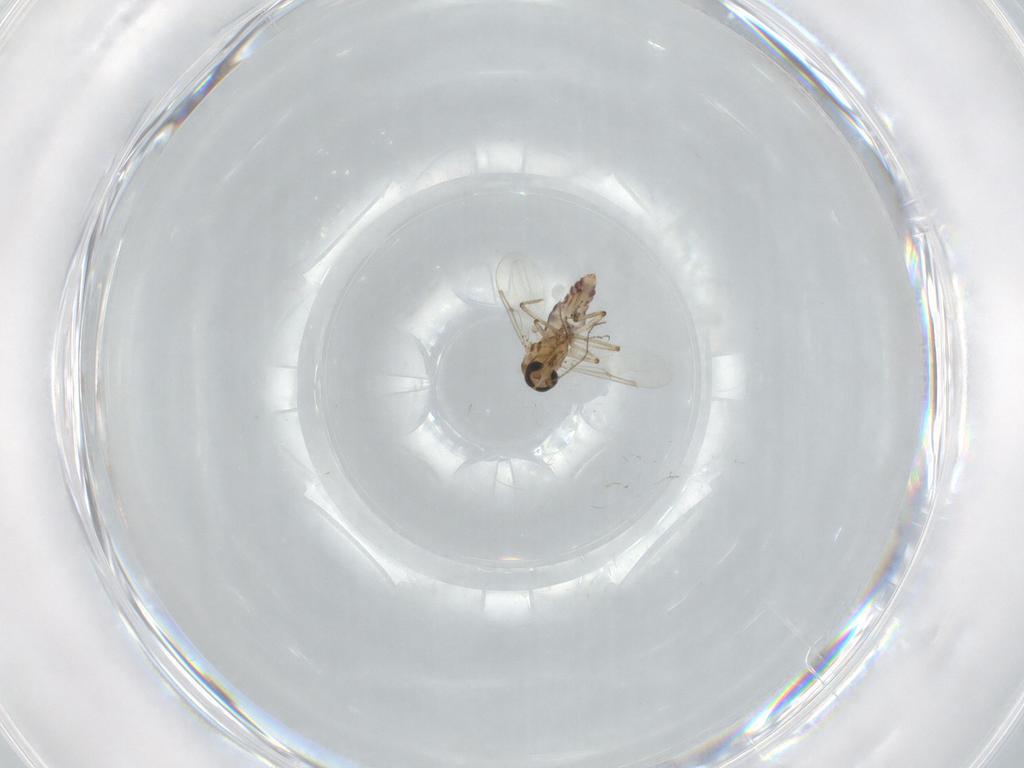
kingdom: Animalia
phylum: Arthropoda
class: Insecta
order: Diptera
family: Ceratopogonidae
